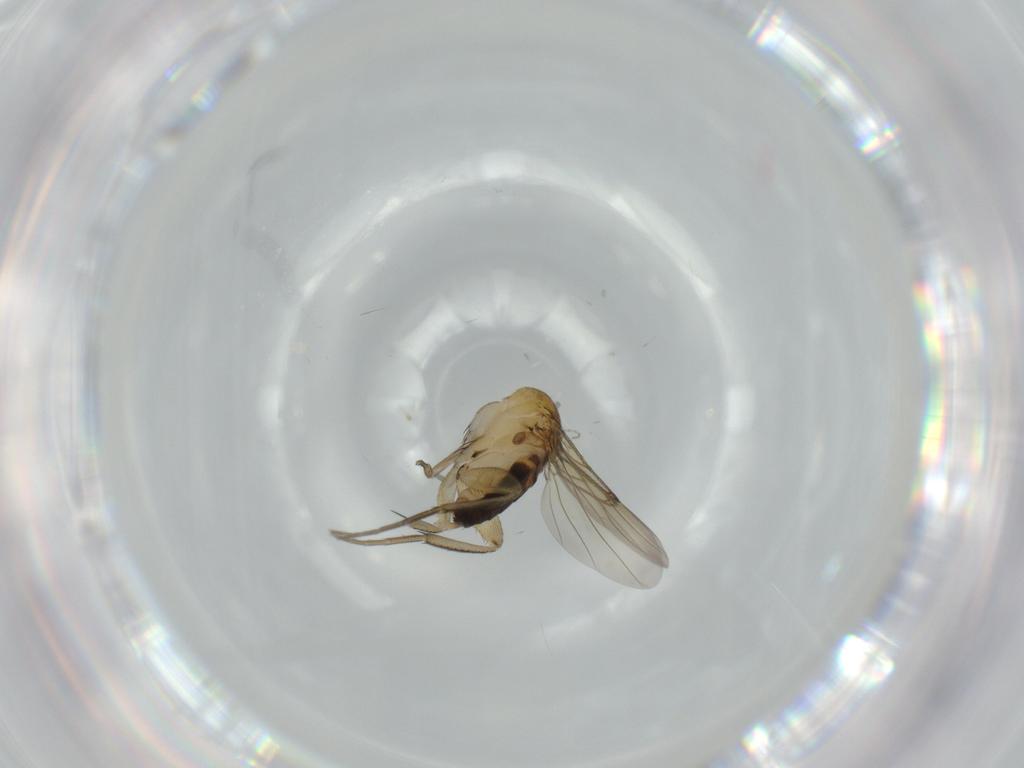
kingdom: Animalia
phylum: Arthropoda
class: Insecta
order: Diptera
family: Phoridae
